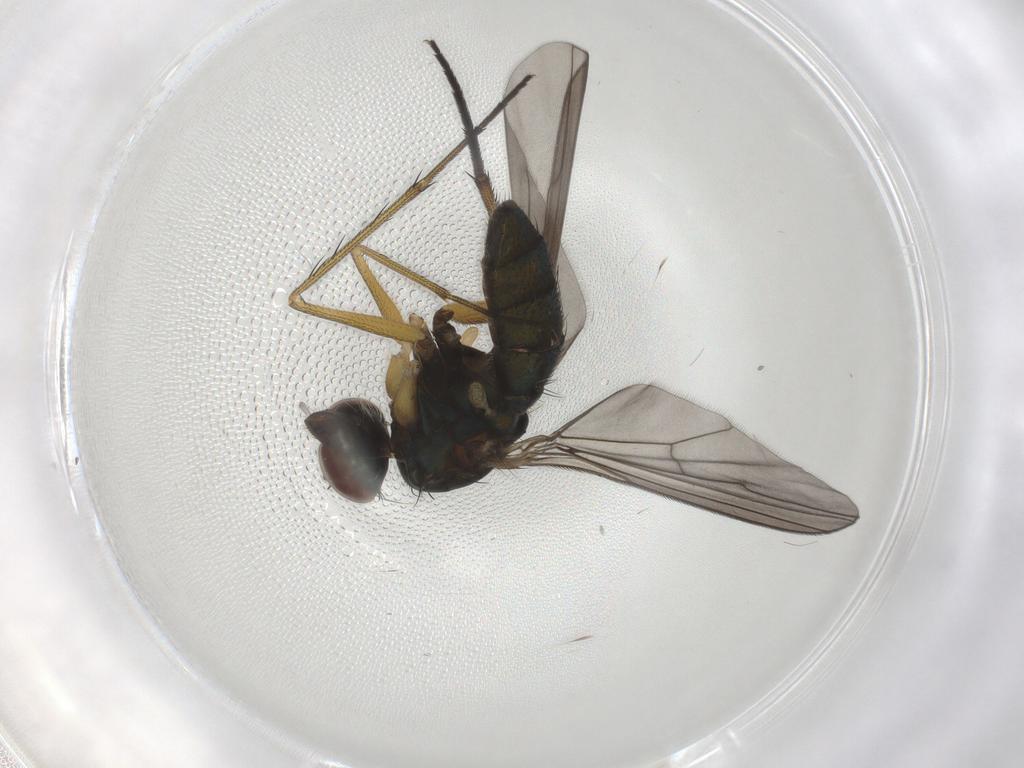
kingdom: Animalia
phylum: Arthropoda
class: Insecta
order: Diptera
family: Dolichopodidae
